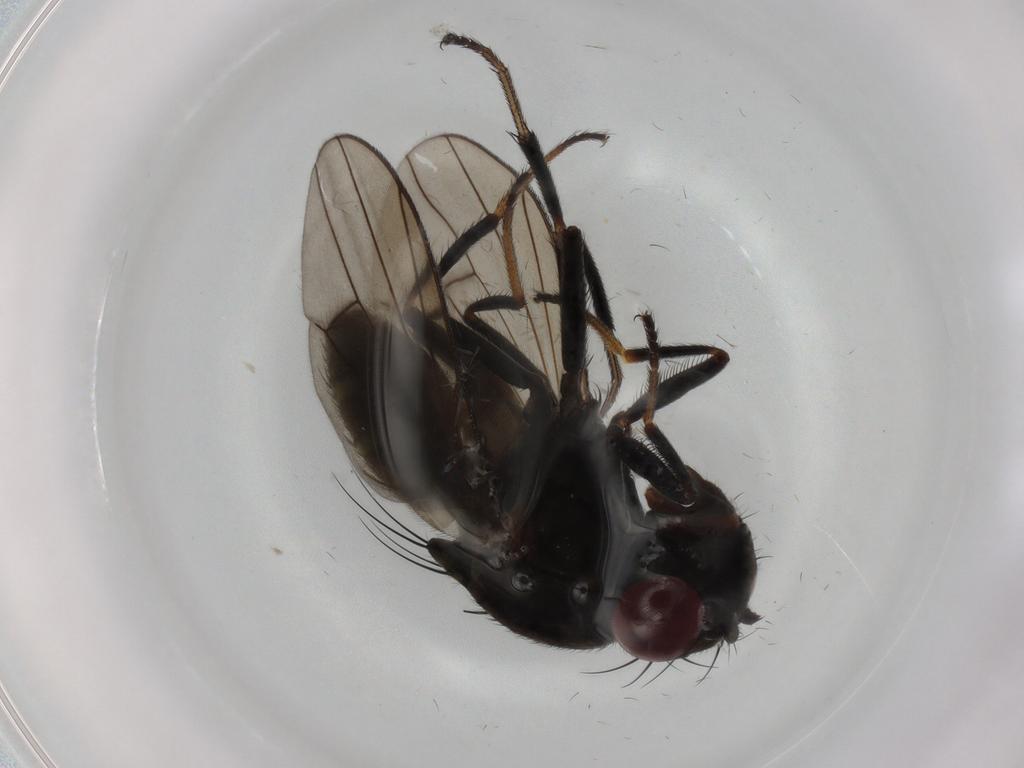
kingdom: Animalia
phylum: Arthropoda
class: Insecta
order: Diptera
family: Ephydridae
